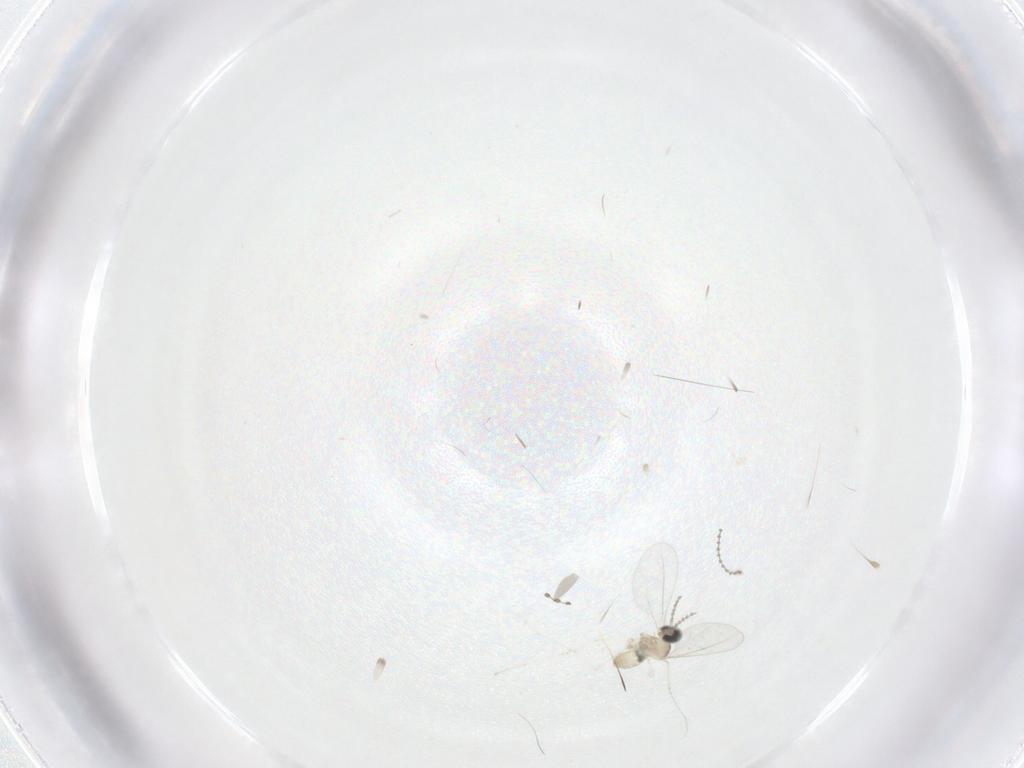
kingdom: Animalia
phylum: Arthropoda
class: Insecta
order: Diptera
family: Cecidomyiidae
